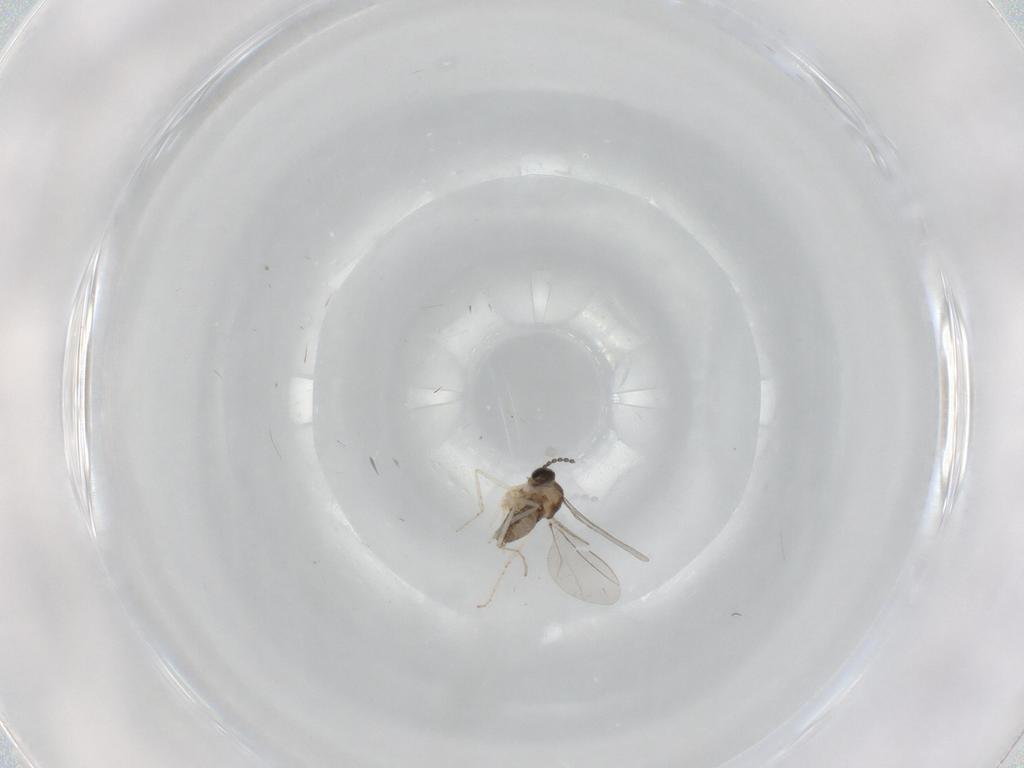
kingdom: Animalia
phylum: Arthropoda
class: Insecta
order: Diptera
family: Cecidomyiidae
